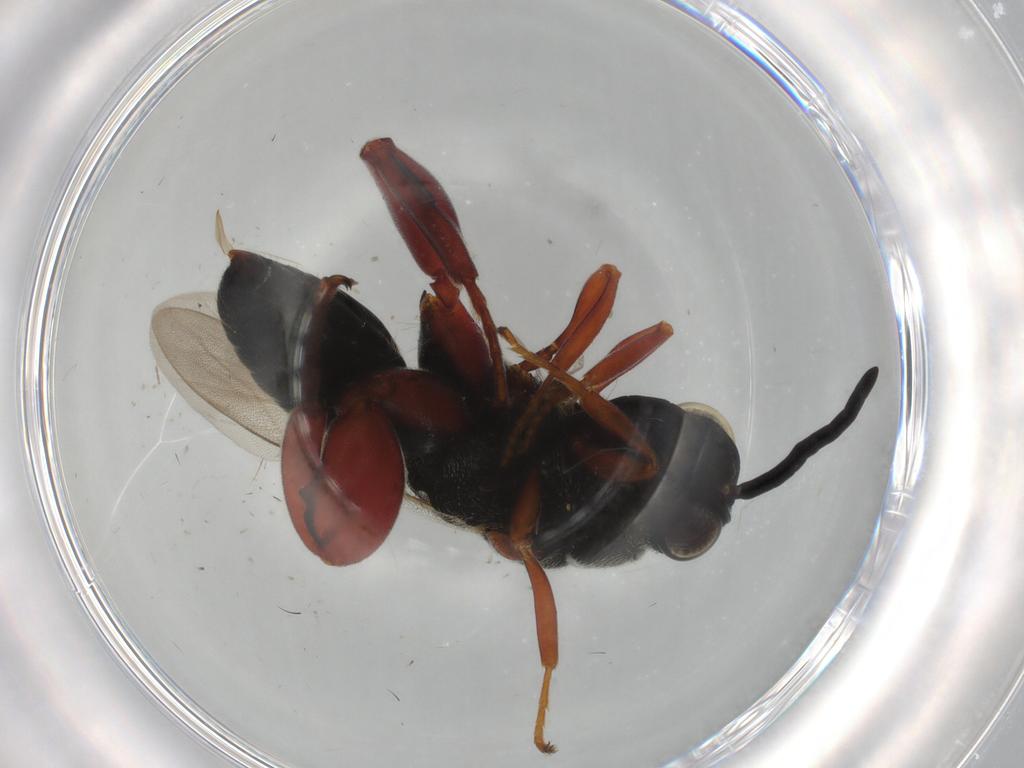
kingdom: Animalia
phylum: Arthropoda
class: Insecta
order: Hymenoptera
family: Chalcididae
